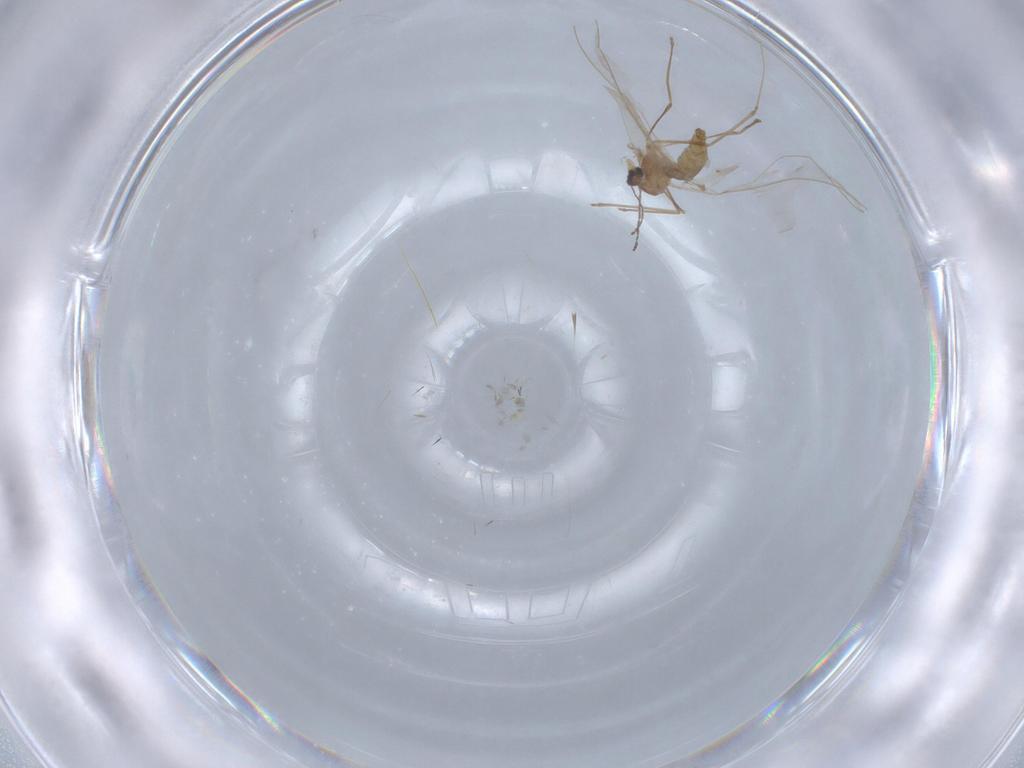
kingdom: Animalia
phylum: Arthropoda
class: Insecta
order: Diptera
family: Cecidomyiidae
